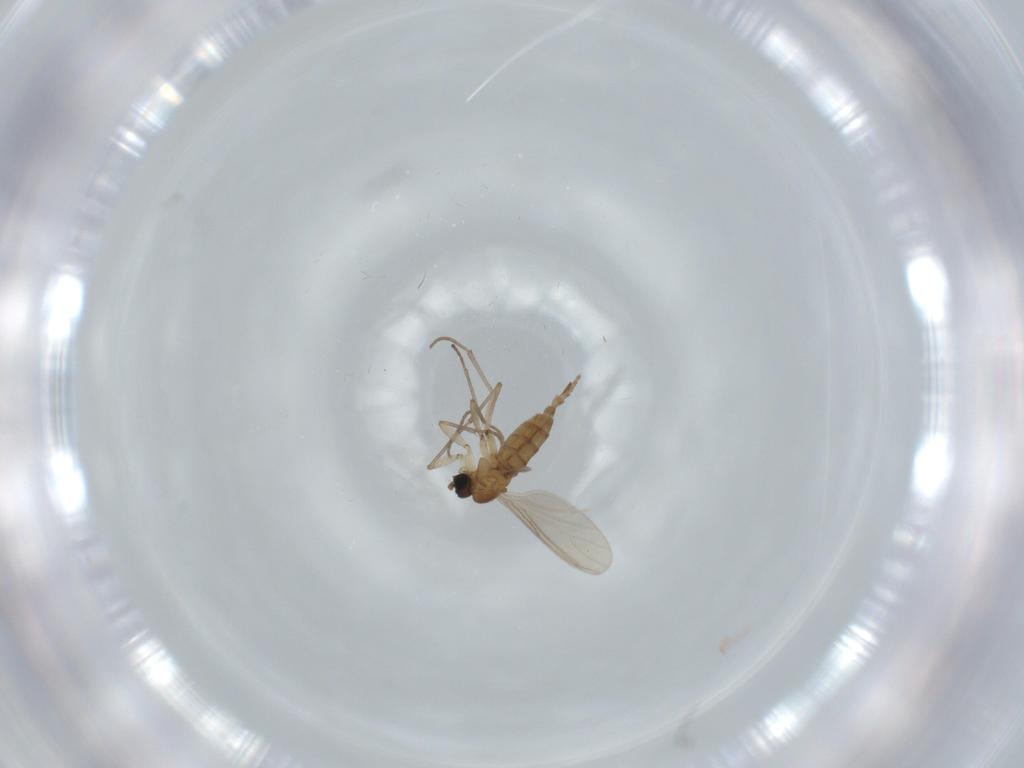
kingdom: Animalia
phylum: Arthropoda
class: Insecta
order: Diptera
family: Sciaridae
